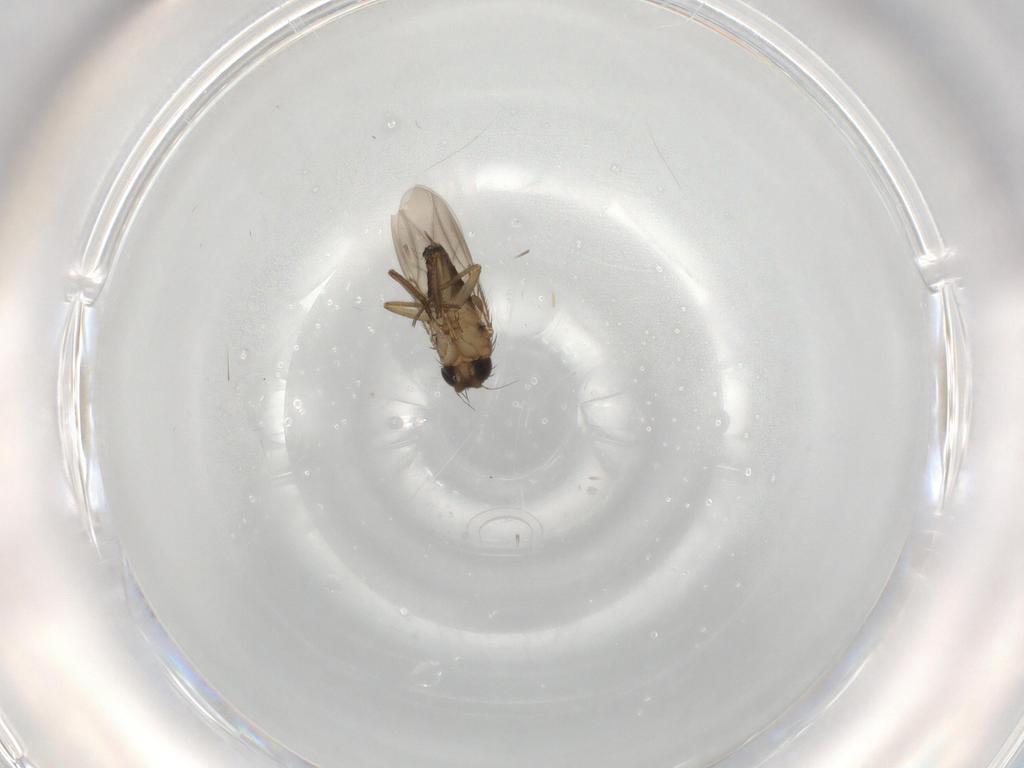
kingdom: Animalia
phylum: Arthropoda
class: Insecta
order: Diptera
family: Phoridae
